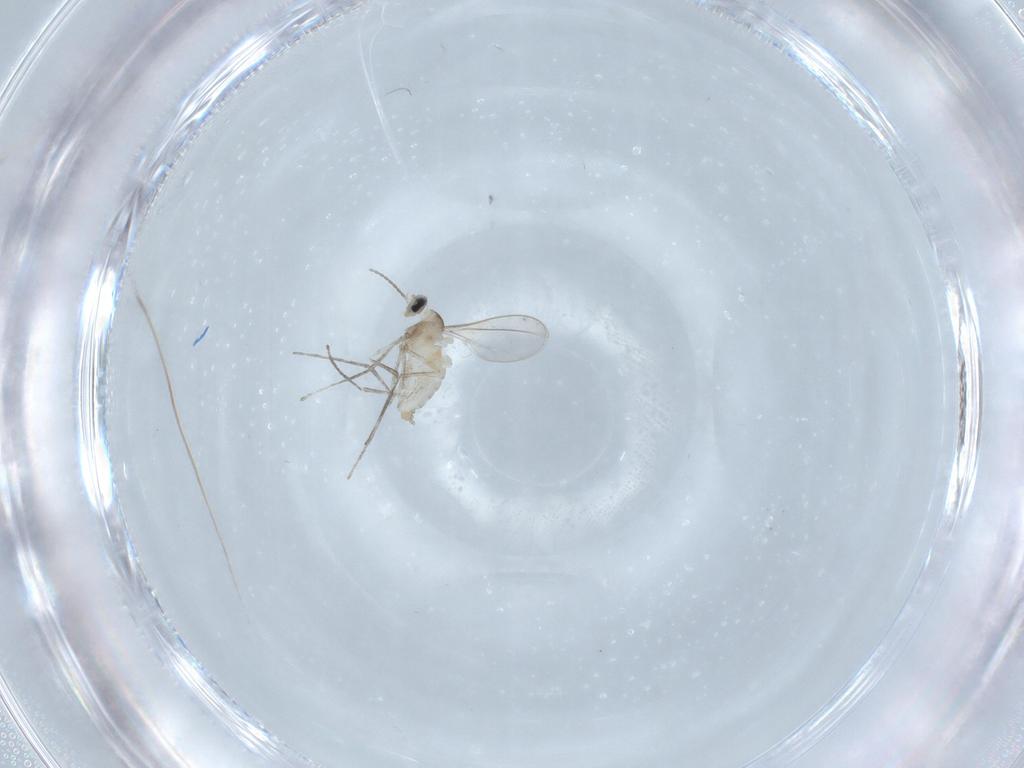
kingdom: Animalia
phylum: Arthropoda
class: Insecta
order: Diptera
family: Cecidomyiidae
